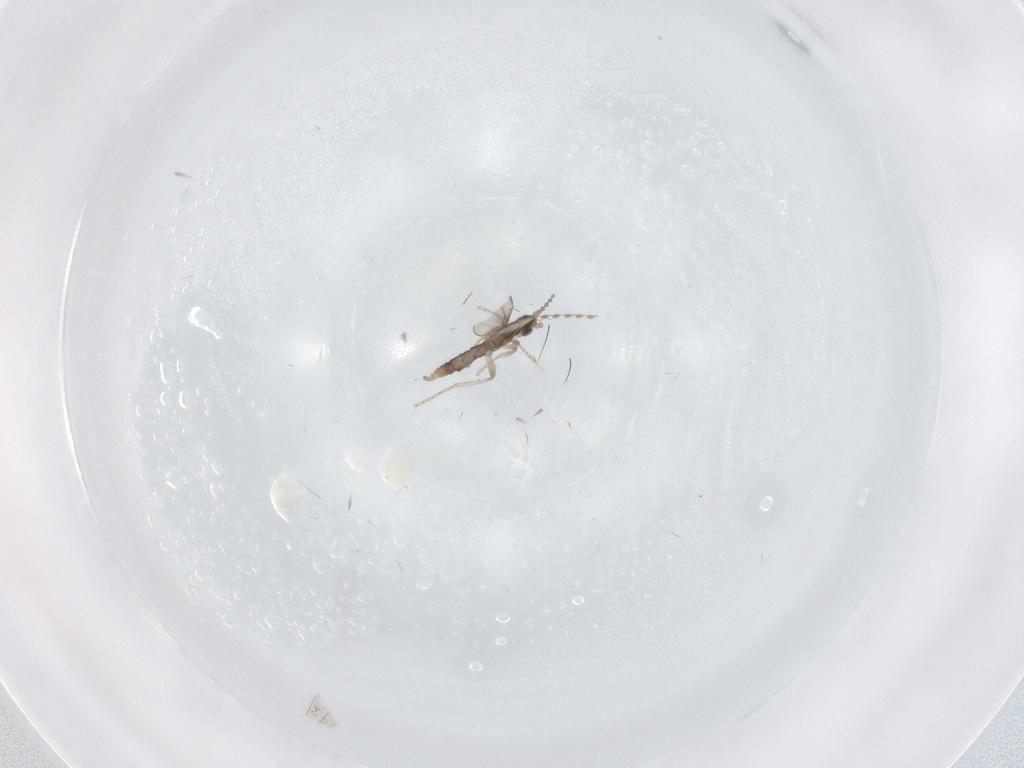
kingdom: Animalia
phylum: Arthropoda
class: Insecta
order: Diptera
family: Cecidomyiidae
